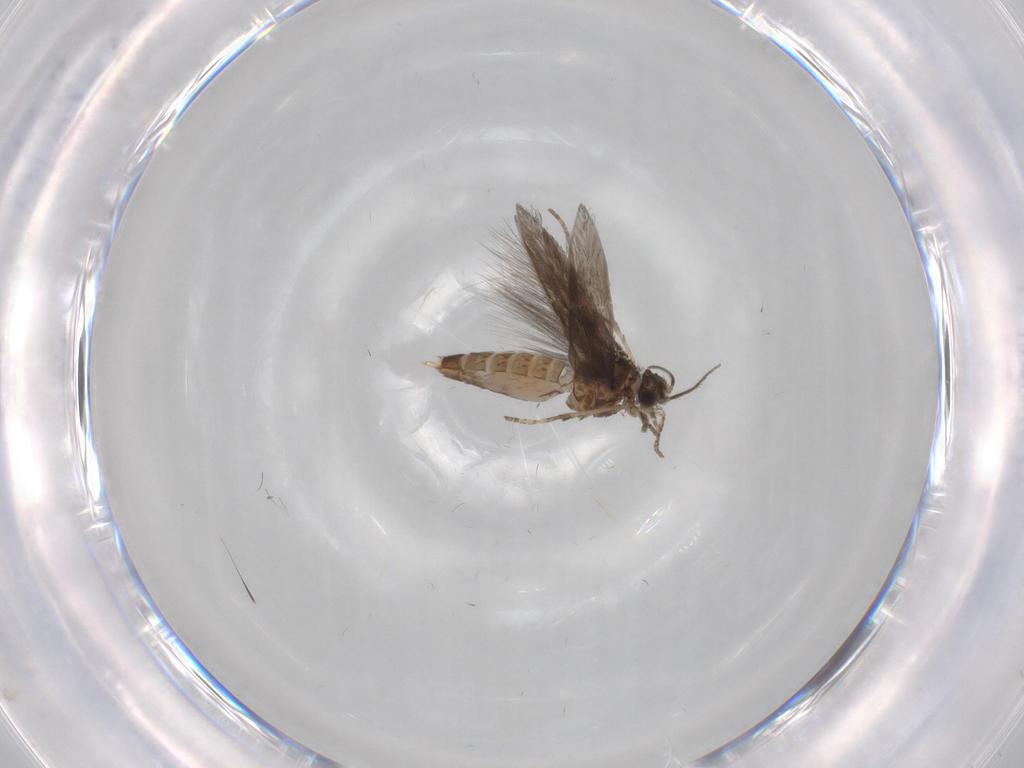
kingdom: Animalia
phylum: Arthropoda
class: Insecta
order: Trichoptera
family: Hydroptilidae
